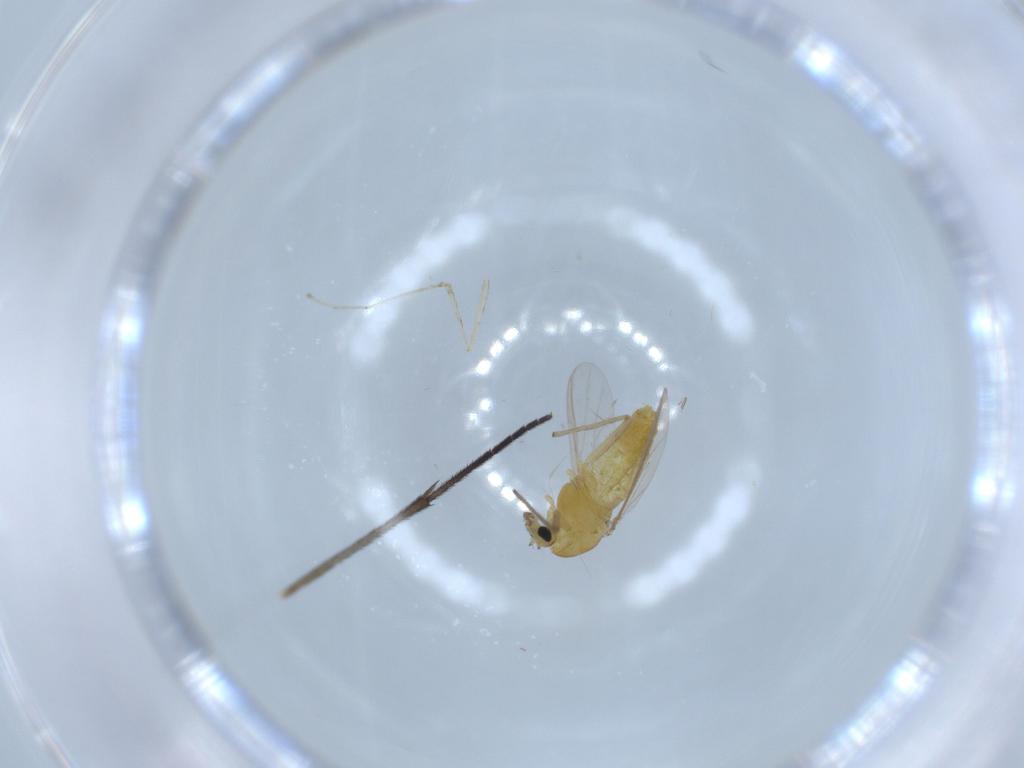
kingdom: Animalia
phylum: Arthropoda
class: Insecta
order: Diptera
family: Chironomidae
